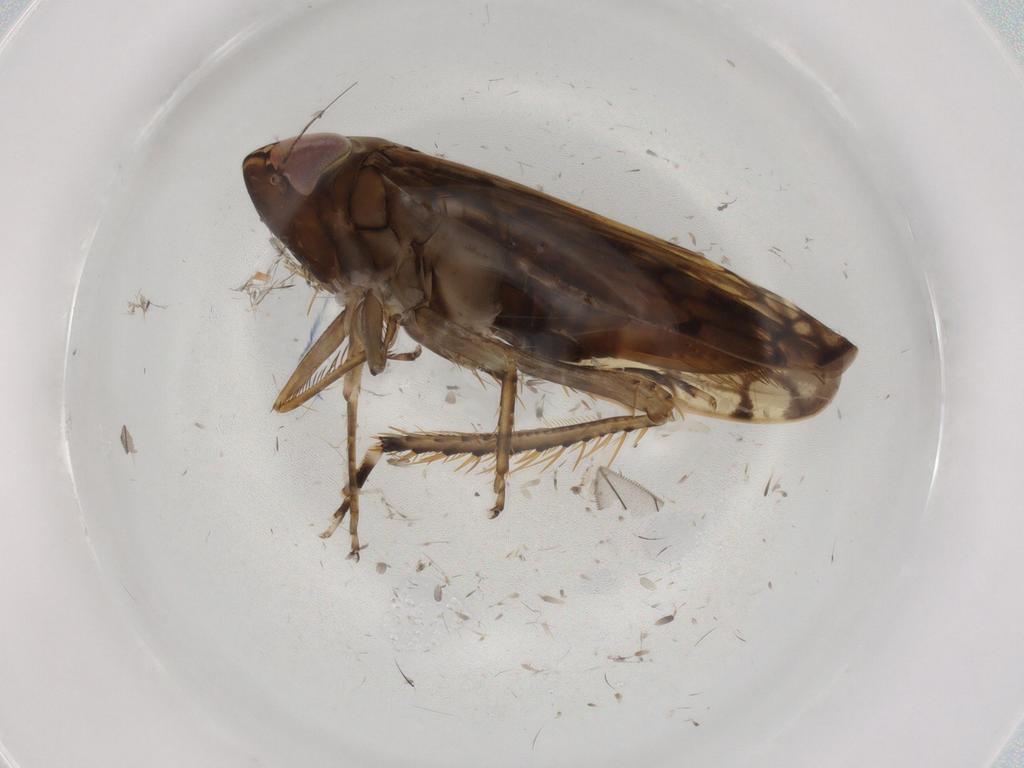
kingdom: Animalia
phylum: Arthropoda
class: Insecta
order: Hemiptera
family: Cicadellidae
